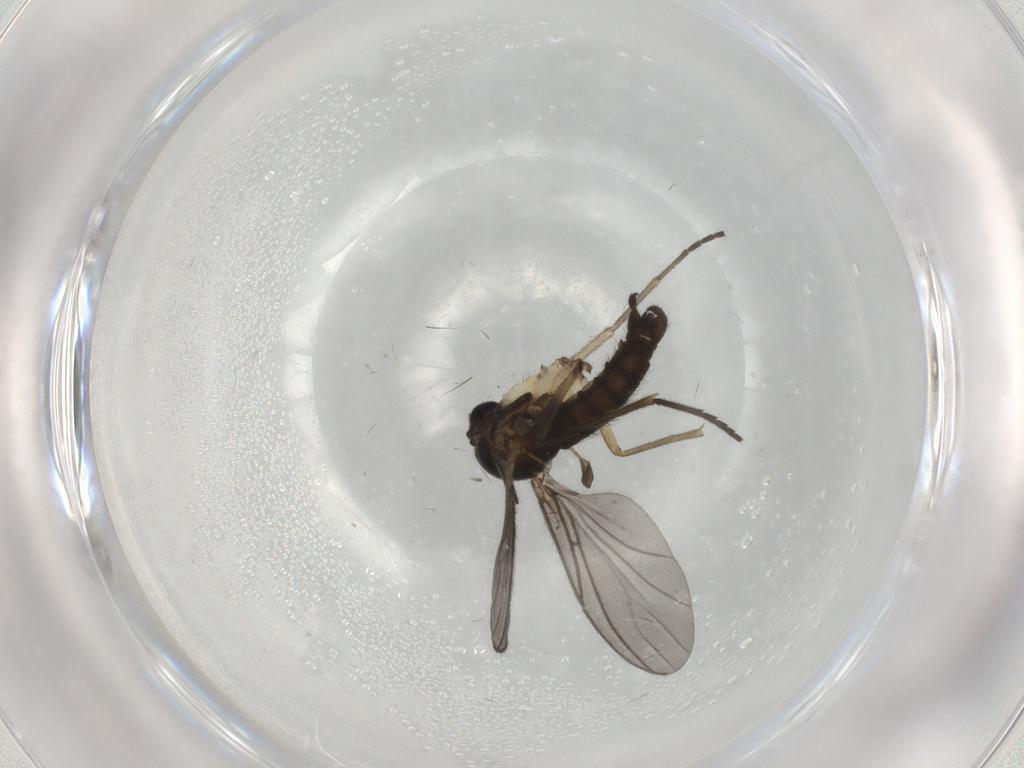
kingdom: Animalia
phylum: Arthropoda
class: Insecta
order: Diptera
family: Sciaridae
